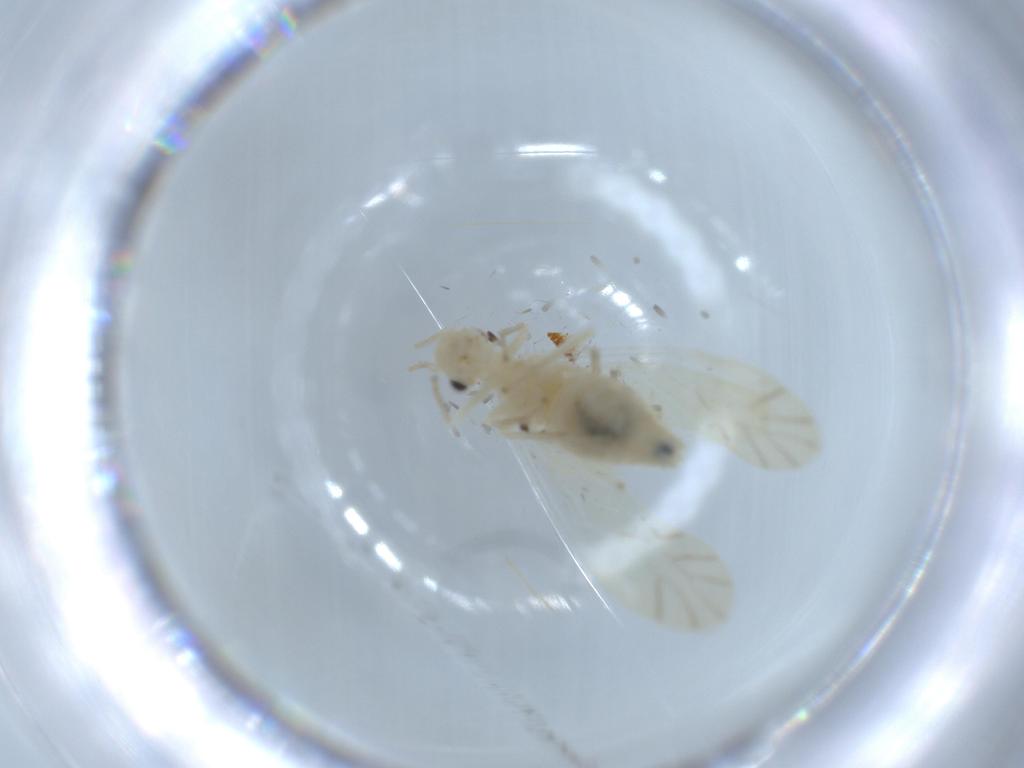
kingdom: Animalia
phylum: Arthropoda
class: Insecta
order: Psocodea
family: Caeciliusidae
